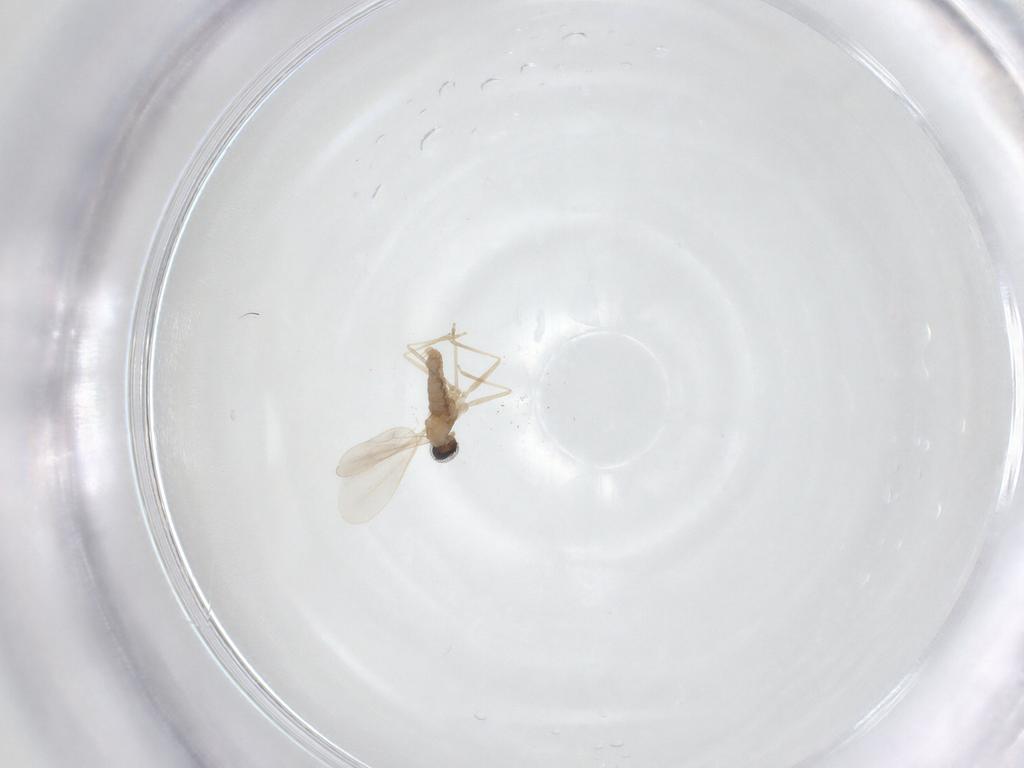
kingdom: Animalia
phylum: Arthropoda
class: Insecta
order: Diptera
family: Cecidomyiidae
